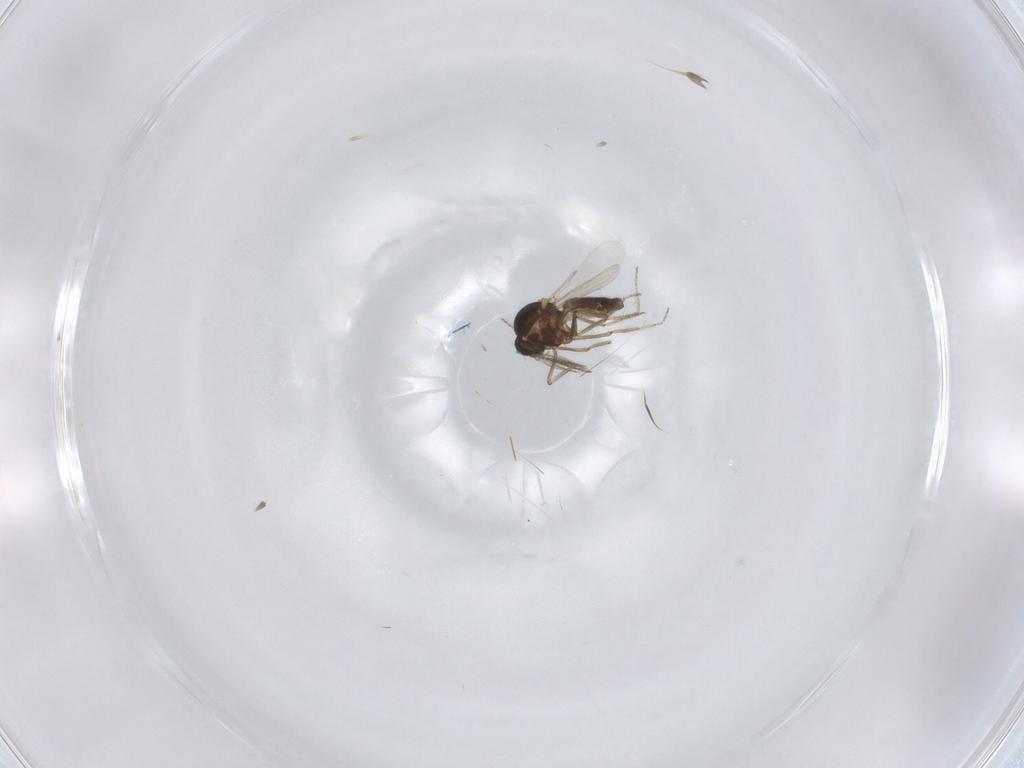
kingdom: Animalia
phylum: Arthropoda
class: Insecta
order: Diptera
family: Ceratopogonidae
